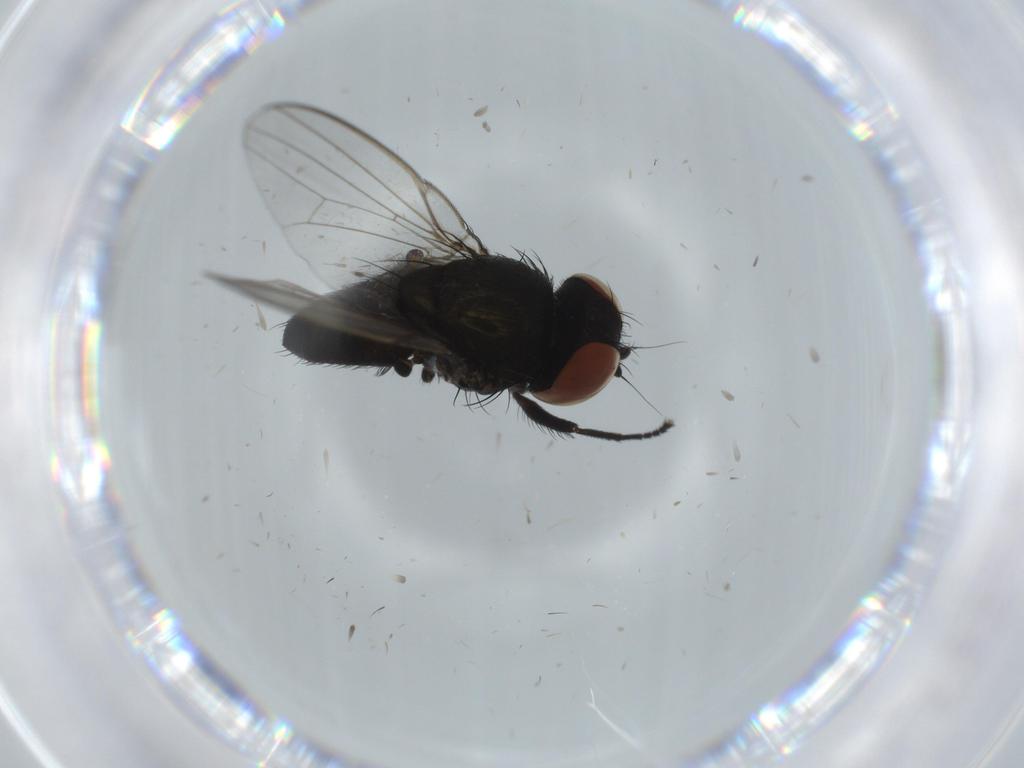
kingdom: Animalia
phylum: Arthropoda
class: Insecta
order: Diptera
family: Milichiidae
